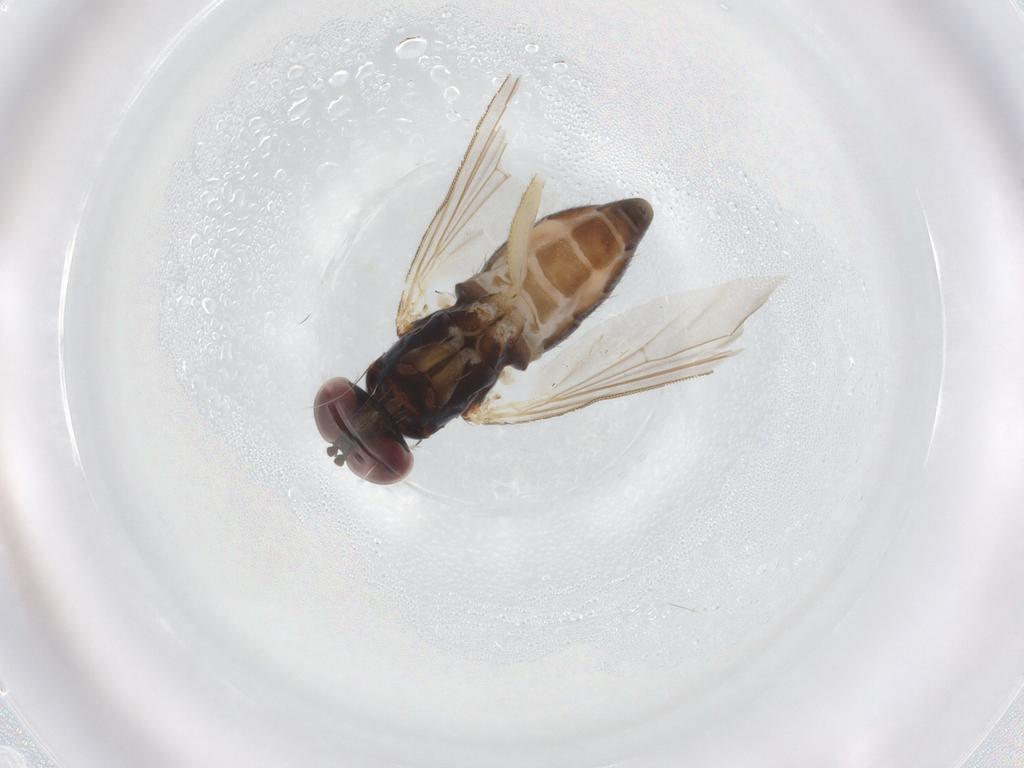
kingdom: Animalia
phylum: Arthropoda
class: Insecta
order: Diptera
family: Dolichopodidae
